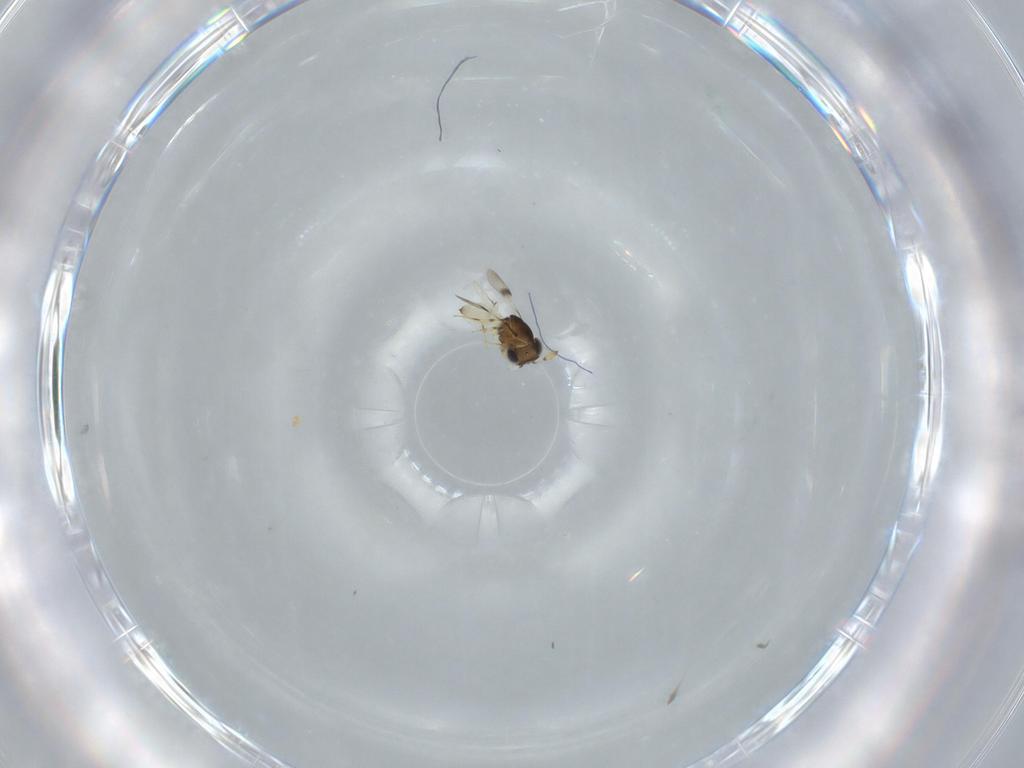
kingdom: Animalia
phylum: Arthropoda
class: Insecta
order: Hymenoptera
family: Scelionidae
